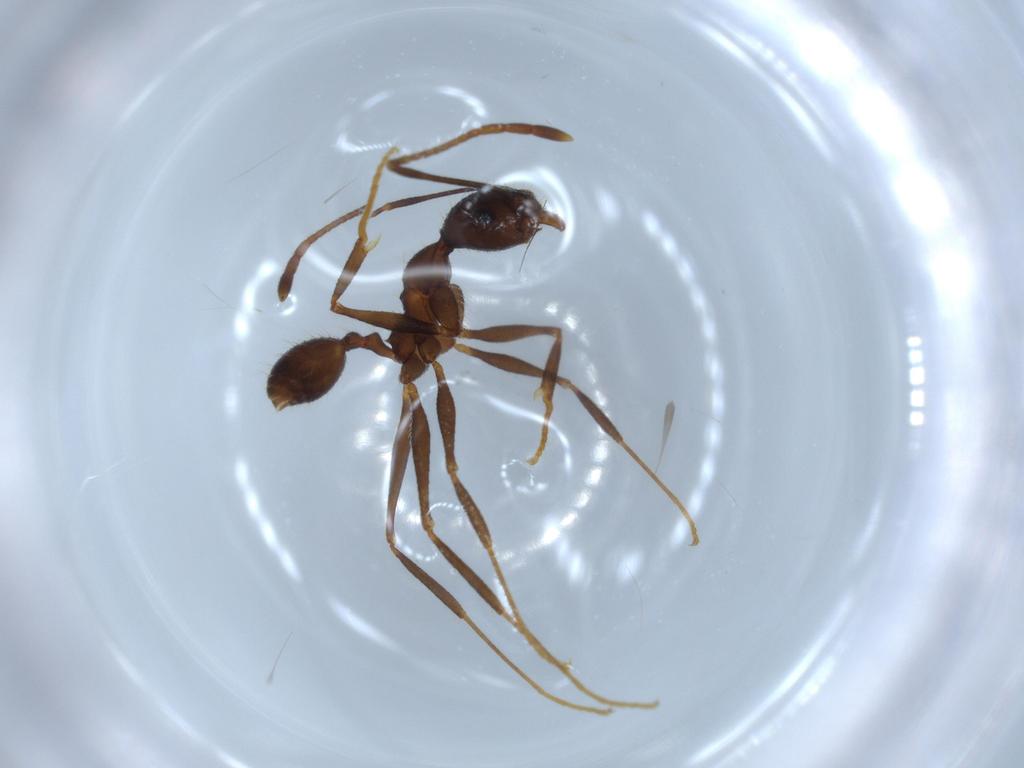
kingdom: Animalia
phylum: Arthropoda
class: Insecta
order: Hymenoptera
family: Formicidae
